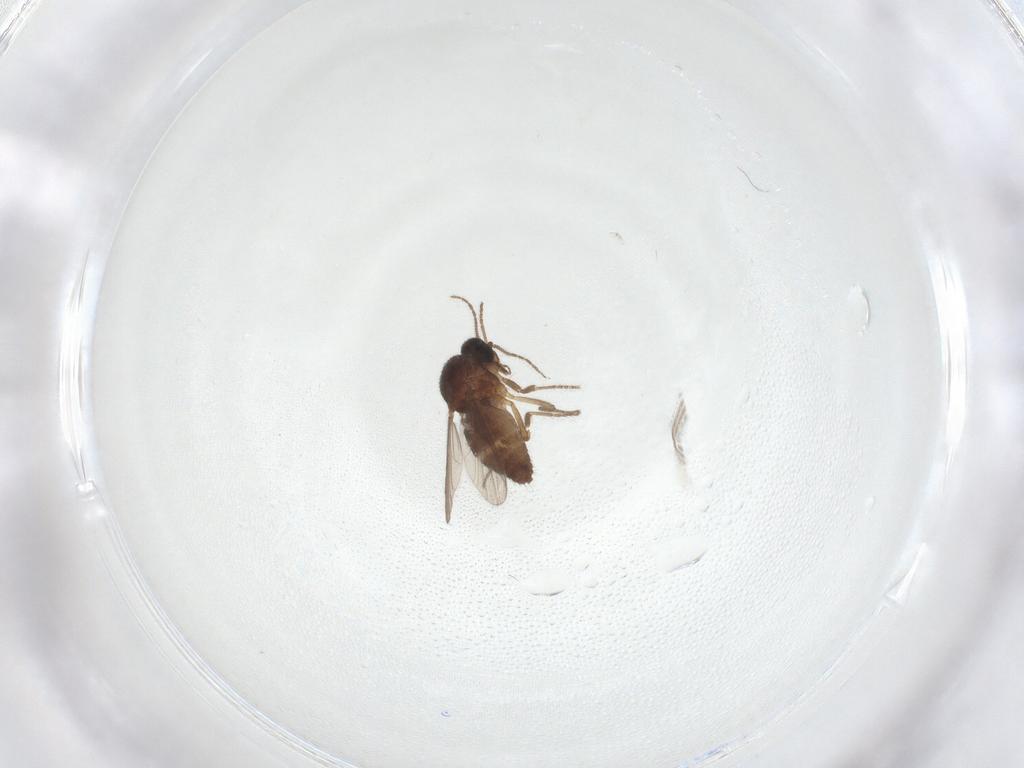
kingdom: Animalia
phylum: Arthropoda
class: Insecta
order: Diptera
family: Ceratopogonidae
